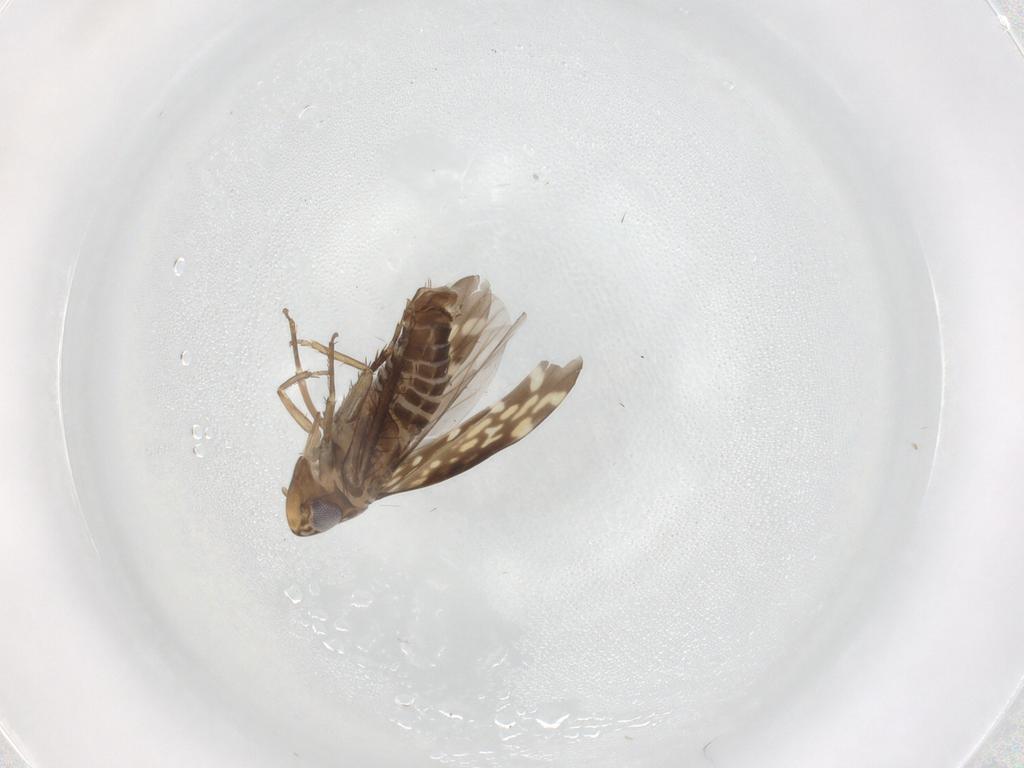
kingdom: Animalia
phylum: Arthropoda
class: Insecta
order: Hemiptera
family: Cicadellidae
